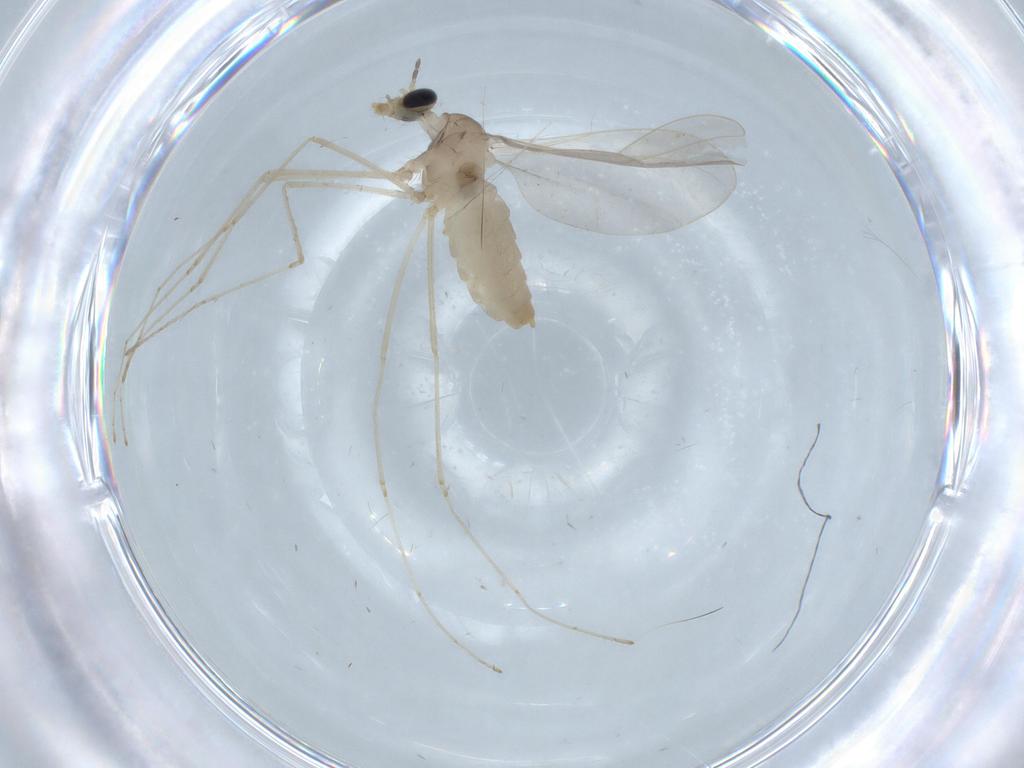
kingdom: Animalia
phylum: Arthropoda
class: Insecta
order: Diptera
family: Cecidomyiidae
